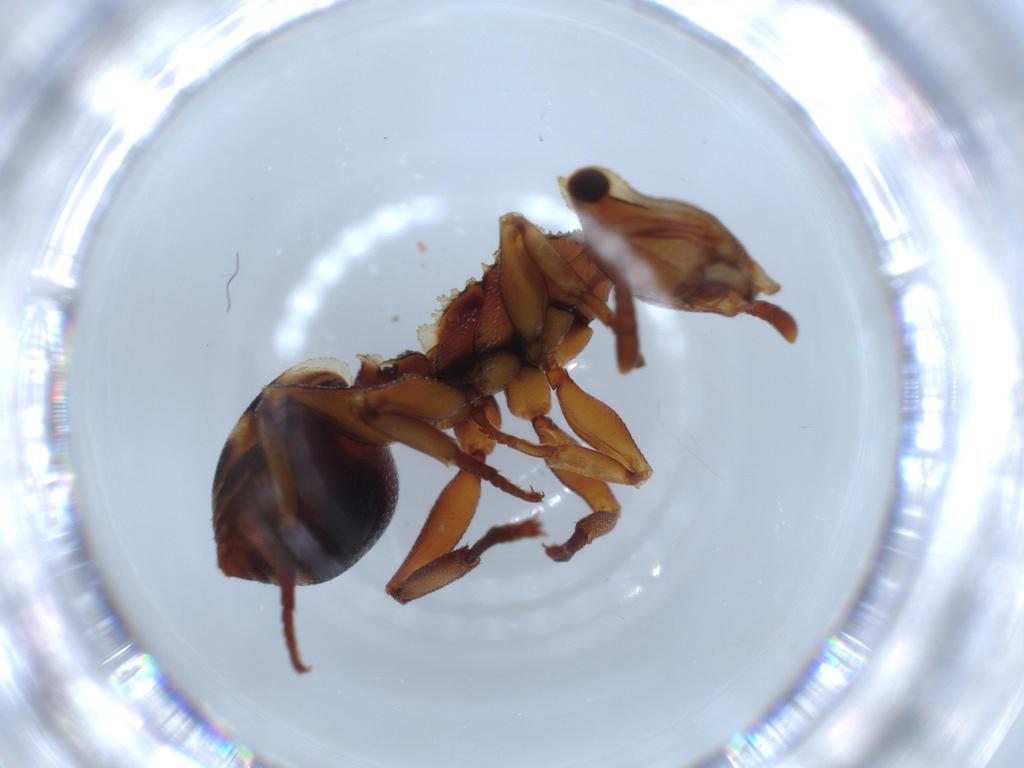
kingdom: Animalia
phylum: Arthropoda
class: Insecta
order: Hymenoptera
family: Formicidae
